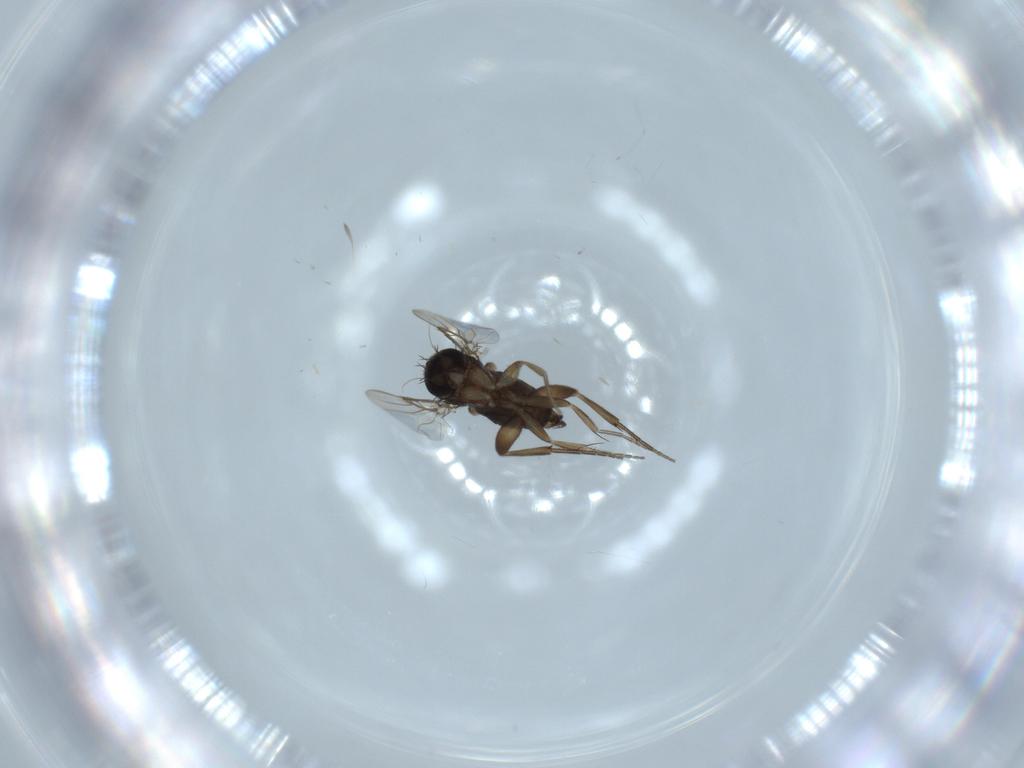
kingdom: Animalia
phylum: Arthropoda
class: Insecta
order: Diptera
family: Phoridae
